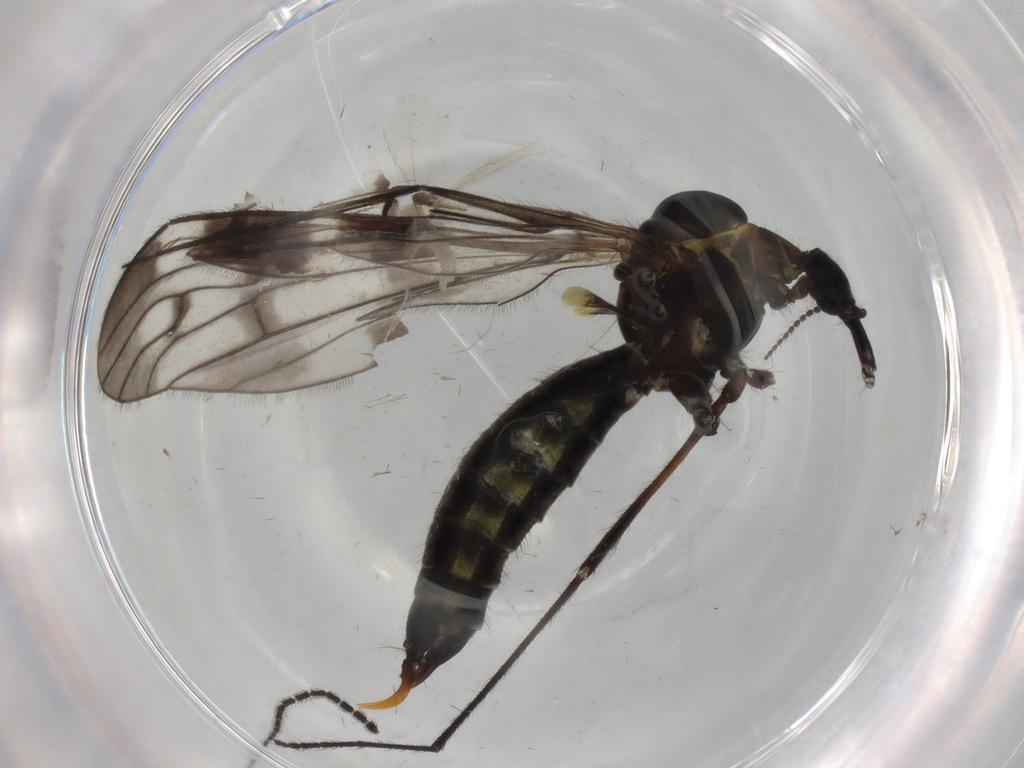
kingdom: Animalia
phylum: Arthropoda
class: Insecta
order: Diptera
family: Limoniidae
